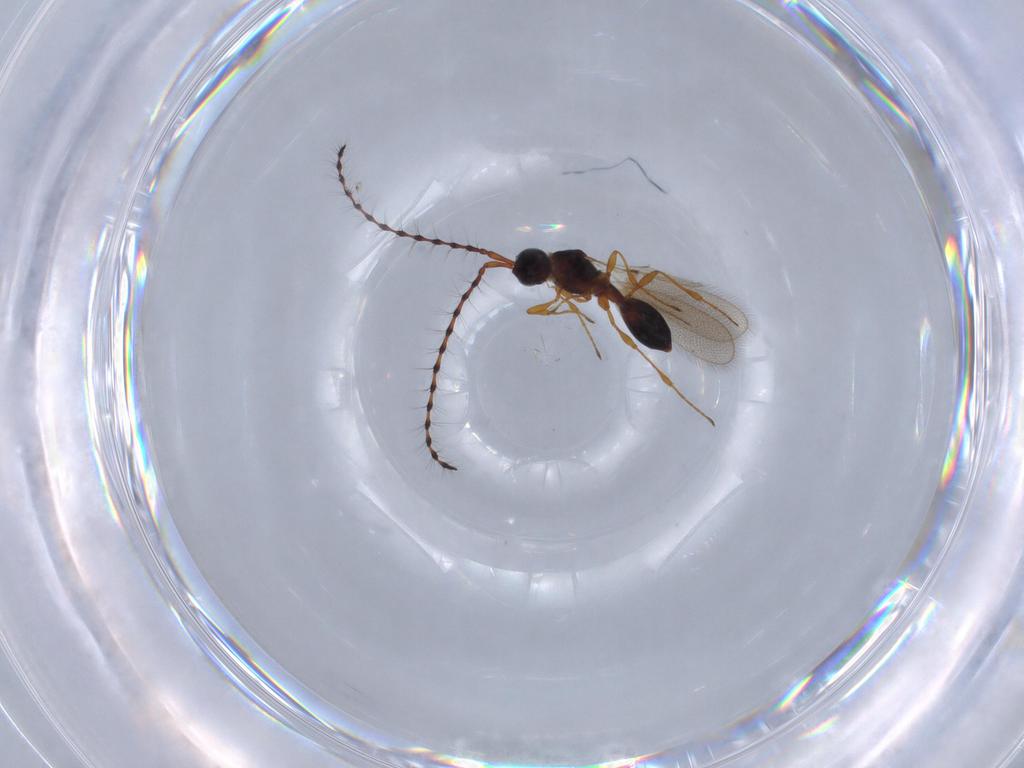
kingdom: Animalia
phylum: Arthropoda
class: Insecta
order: Hymenoptera
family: Diapriidae
